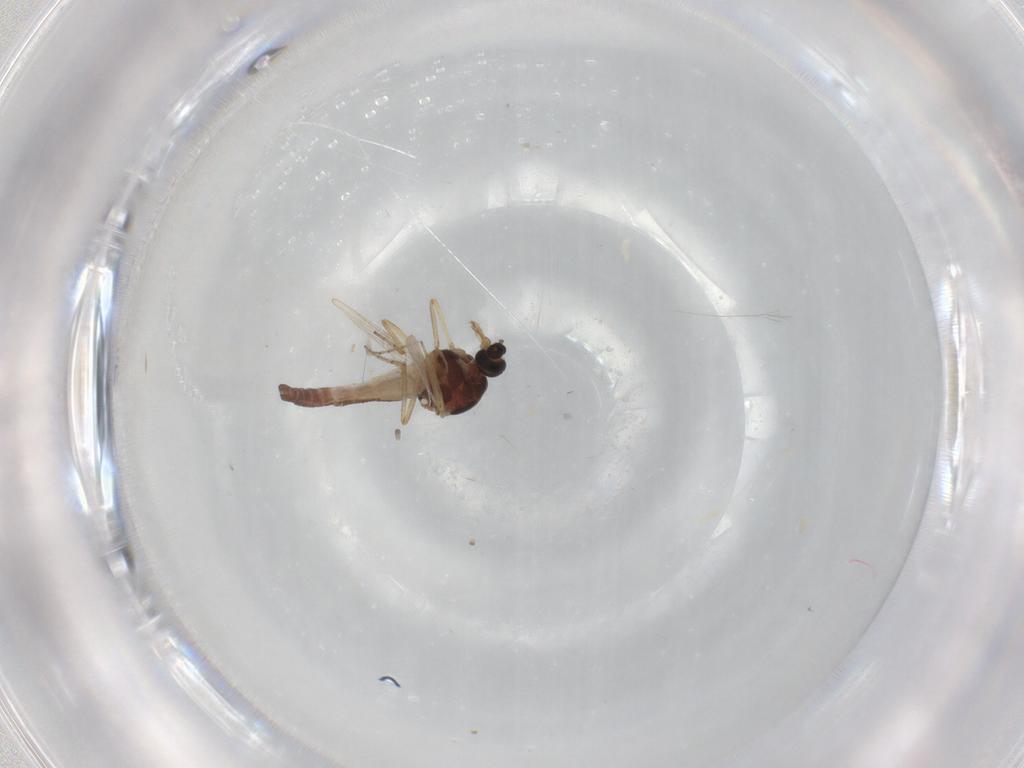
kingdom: Animalia
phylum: Arthropoda
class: Insecta
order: Diptera
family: Ceratopogonidae
